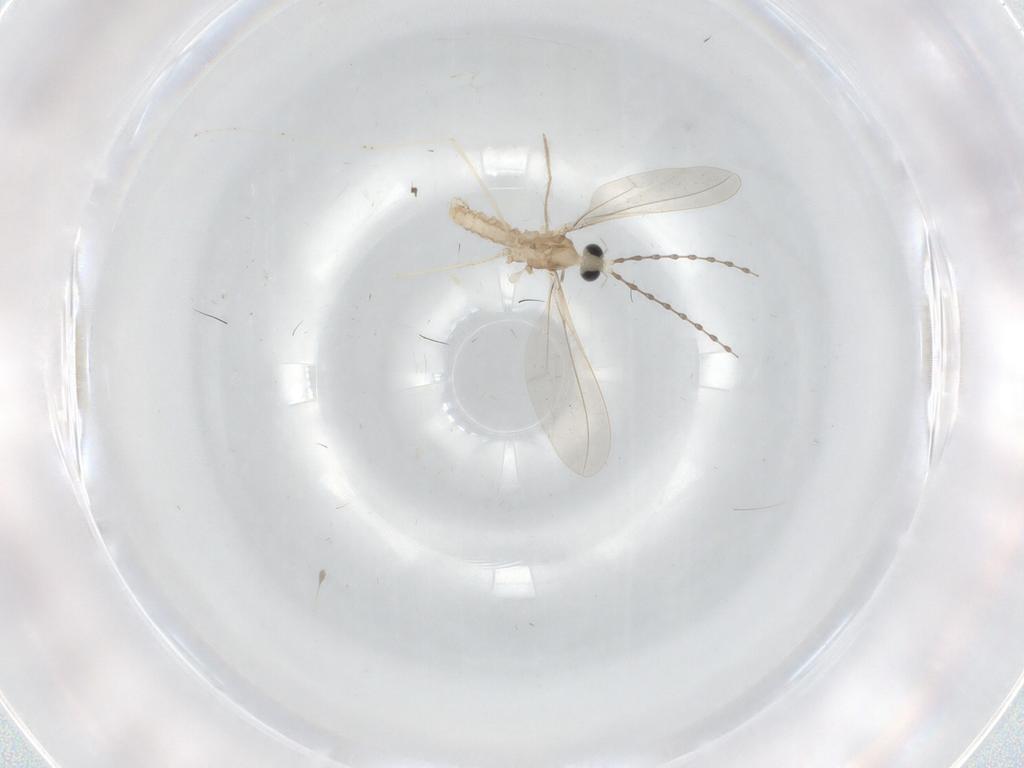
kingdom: Animalia
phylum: Arthropoda
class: Insecta
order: Diptera
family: Cecidomyiidae
